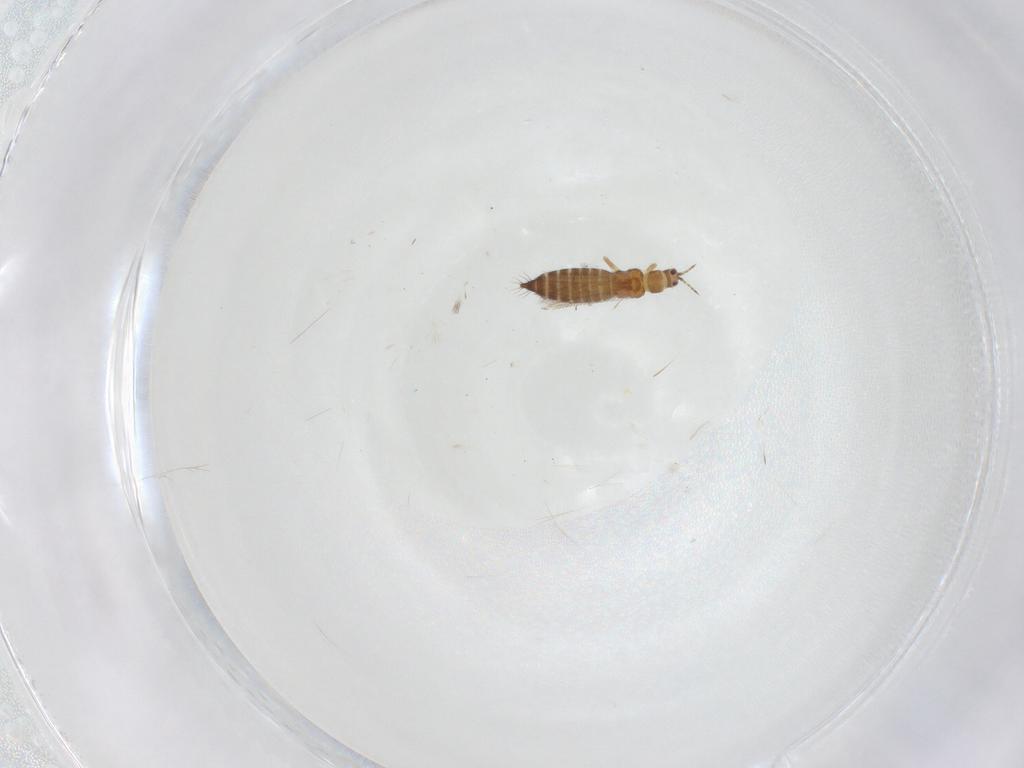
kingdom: Animalia
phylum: Arthropoda
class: Insecta
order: Thysanoptera
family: Thripidae
